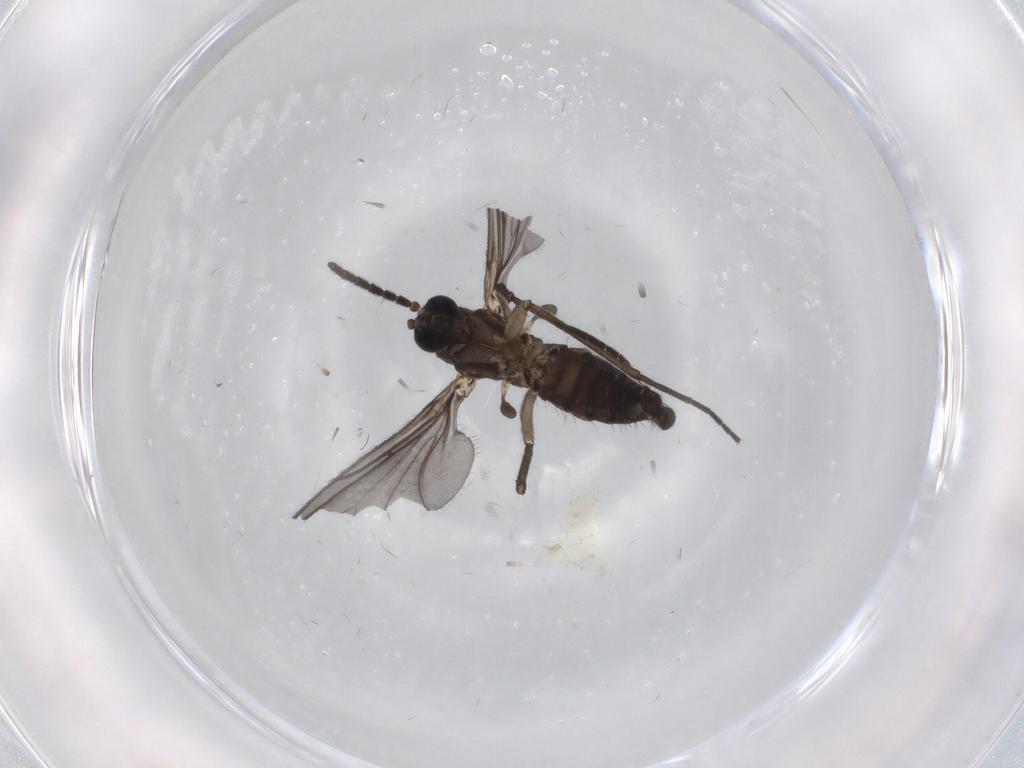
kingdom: Animalia
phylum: Arthropoda
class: Insecta
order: Diptera
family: Sciaridae
